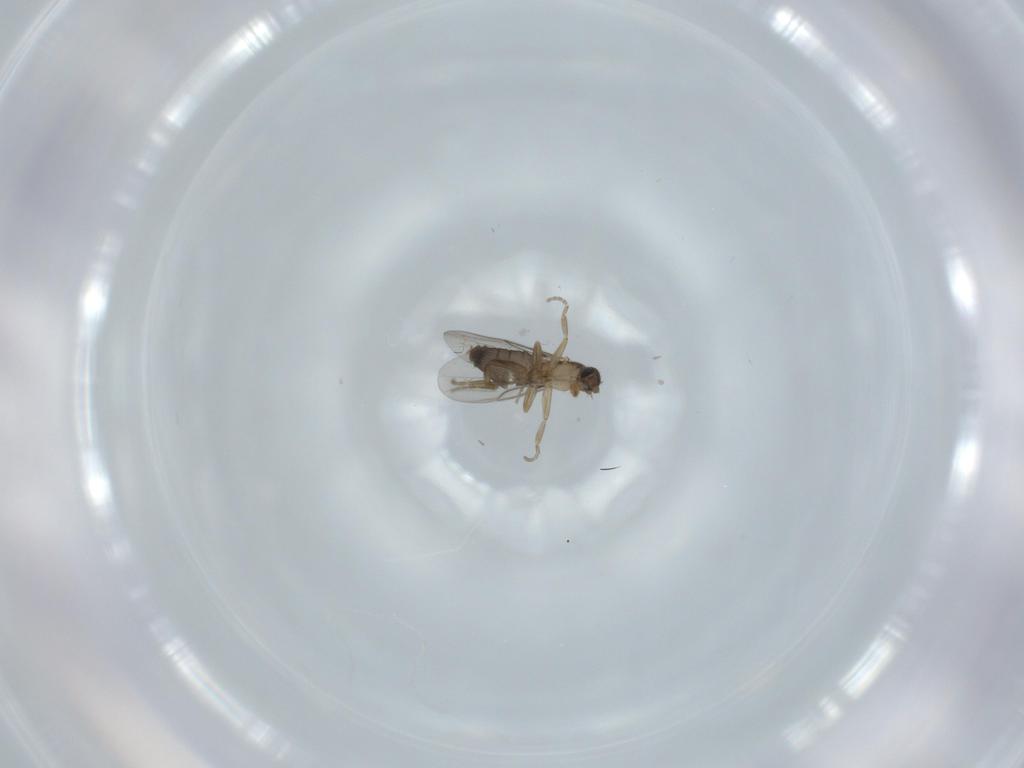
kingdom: Animalia
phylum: Arthropoda
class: Insecta
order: Diptera
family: Phoridae
